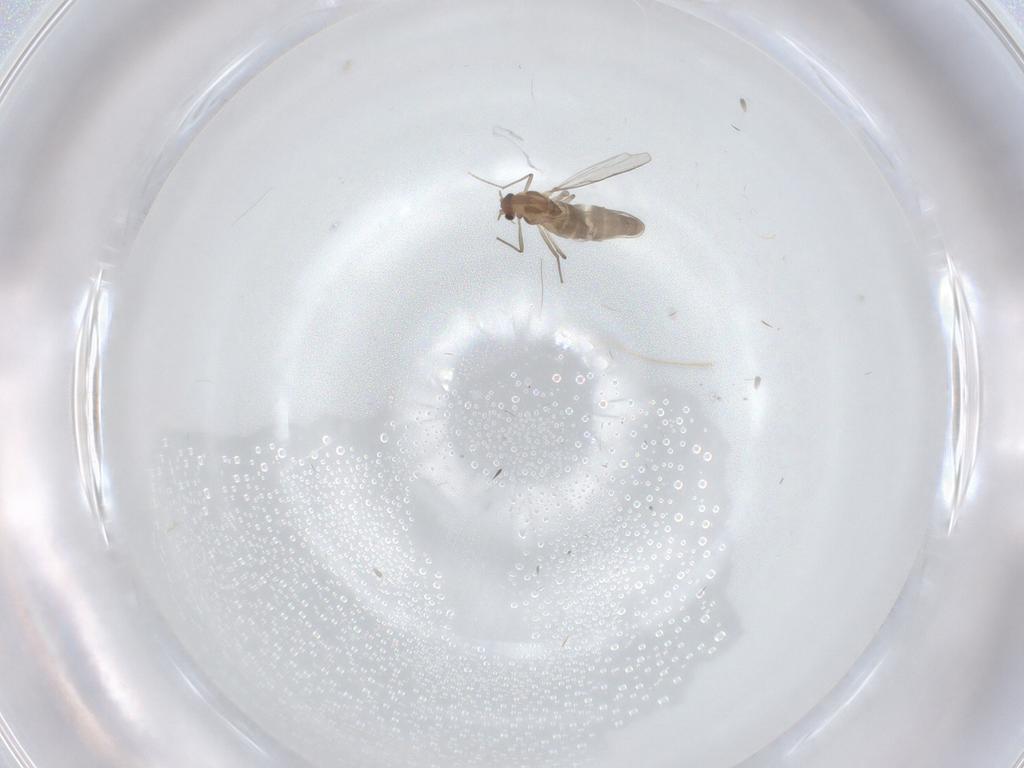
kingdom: Animalia
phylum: Arthropoda
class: Insecta
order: Diptera
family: Chironomidae
